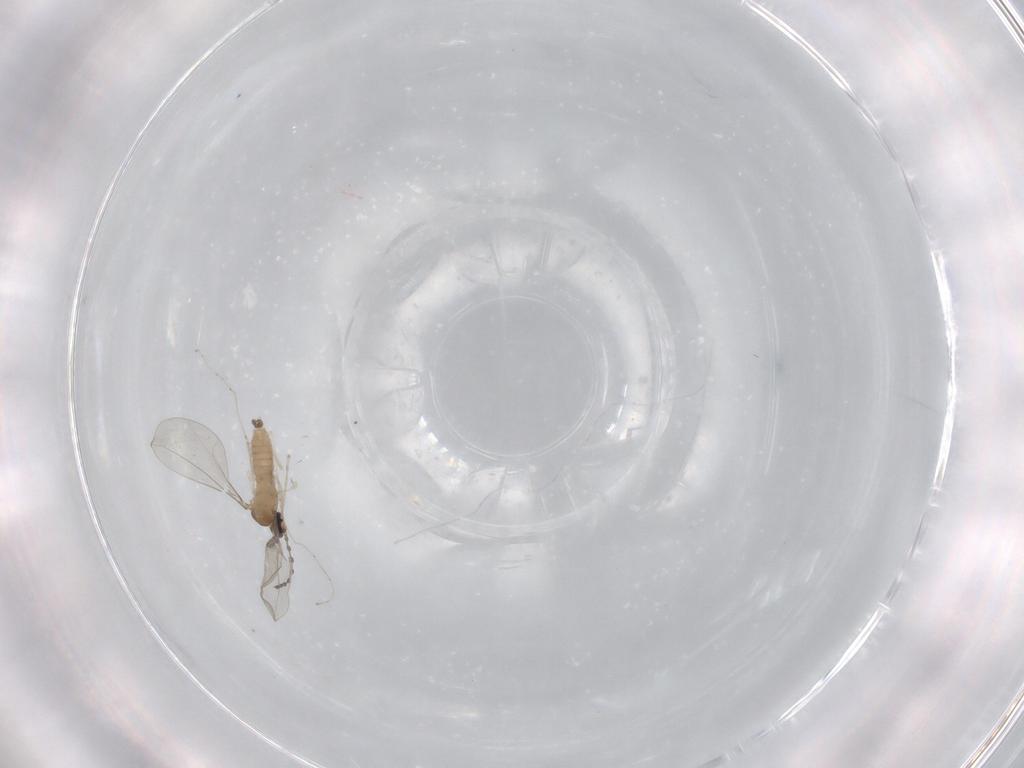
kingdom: Animalia
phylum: Arthropoda
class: Insecta
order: Diptera
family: Cecidomyiidae
